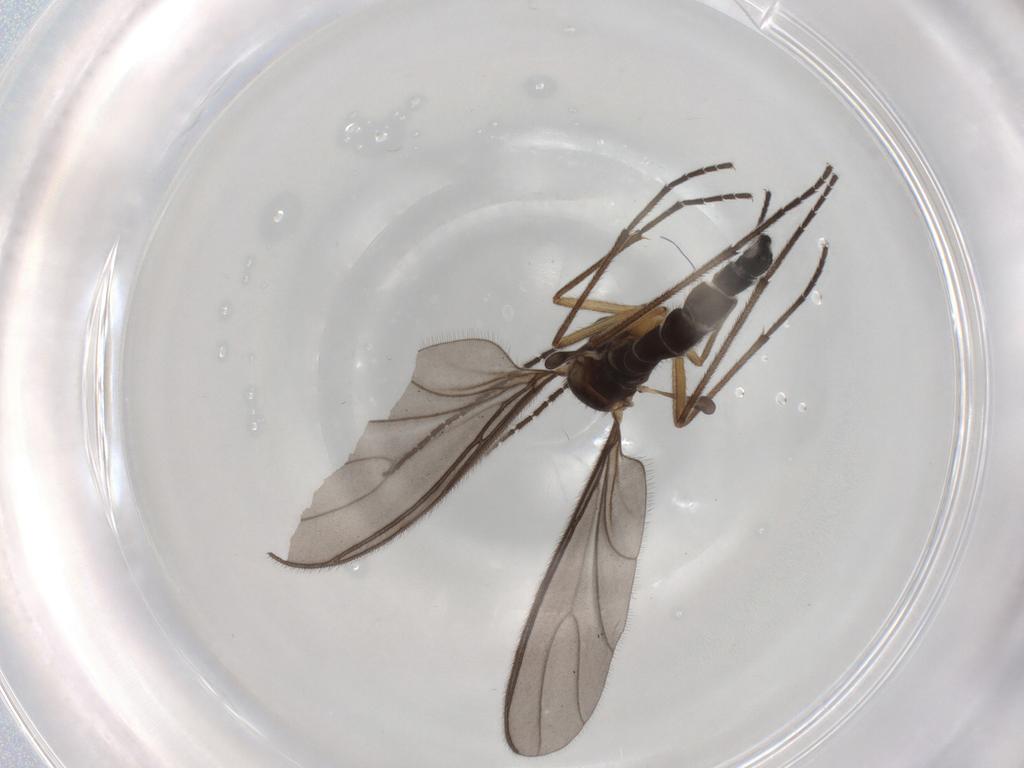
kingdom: Animalia
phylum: Arthropoda
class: Insecta
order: Diptera
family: Sciaridae
